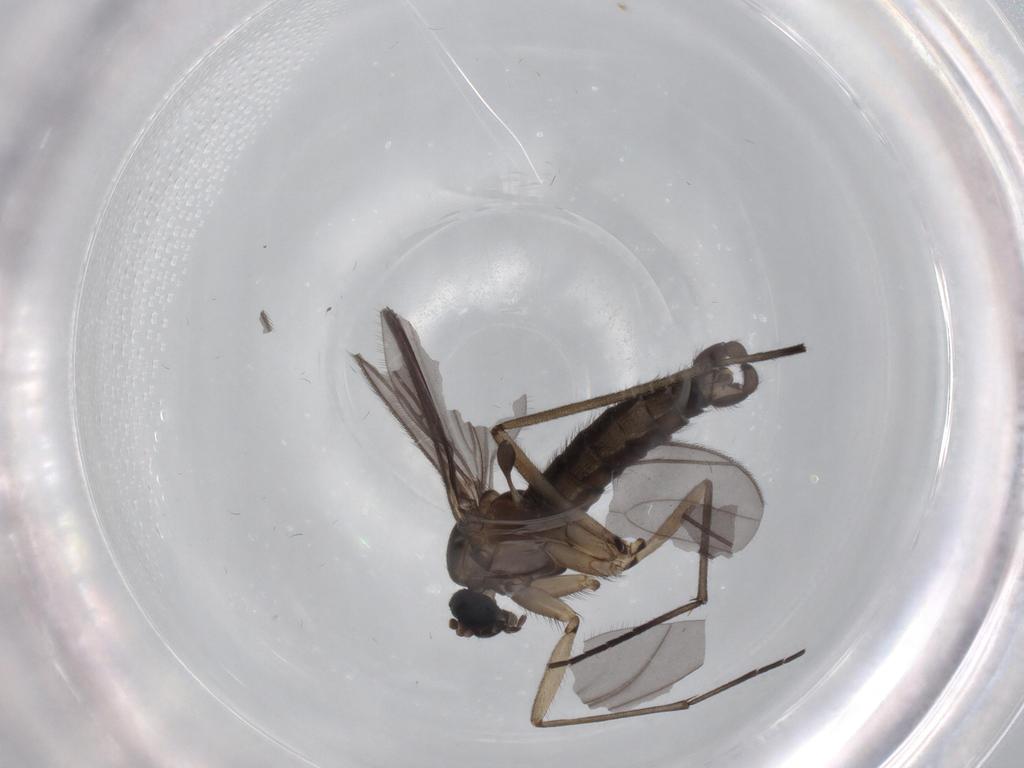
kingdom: Animalia
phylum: Arthropoda
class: Insecta
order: Diptera
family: Sciaridae
